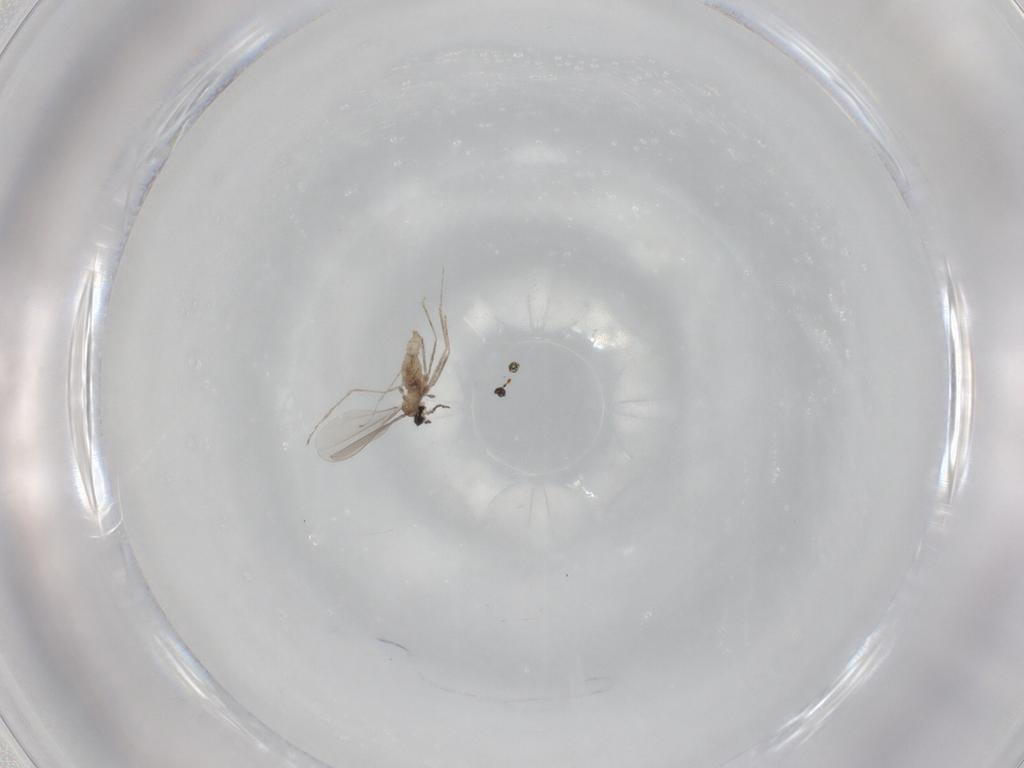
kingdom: Animalia
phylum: Arthropoda
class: Insecta
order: Diptera
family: Cecidomyiidae
